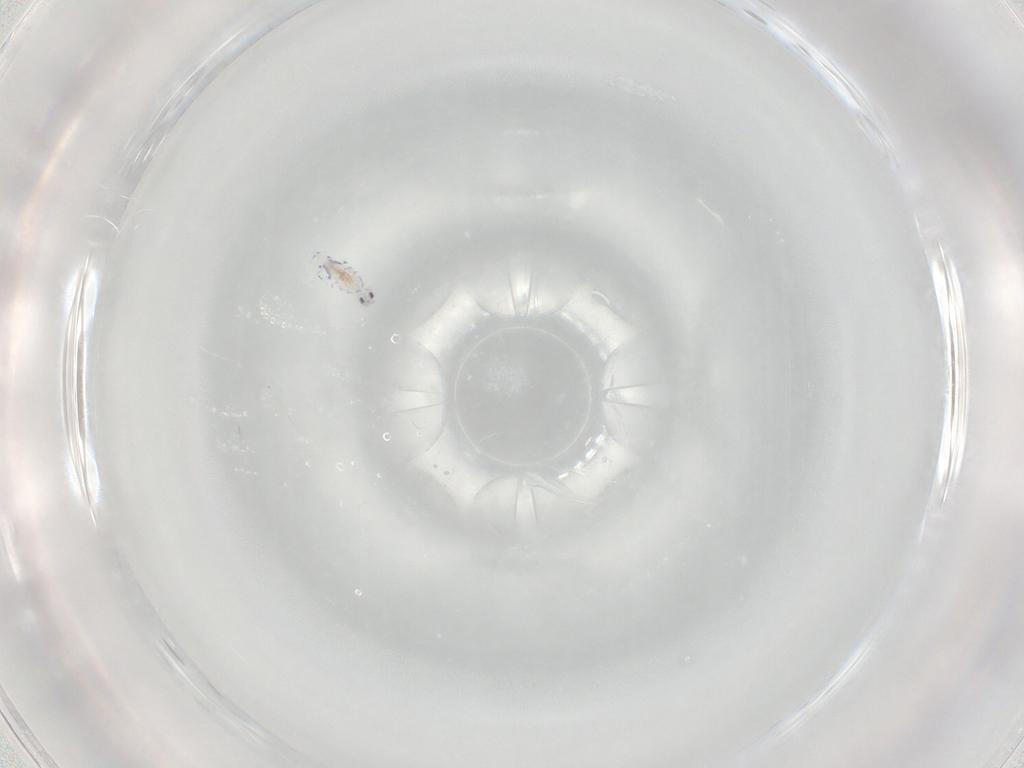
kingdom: Animalia
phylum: Arthropoda
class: Collembola
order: Entomobryomorpha
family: Entomobryidae
